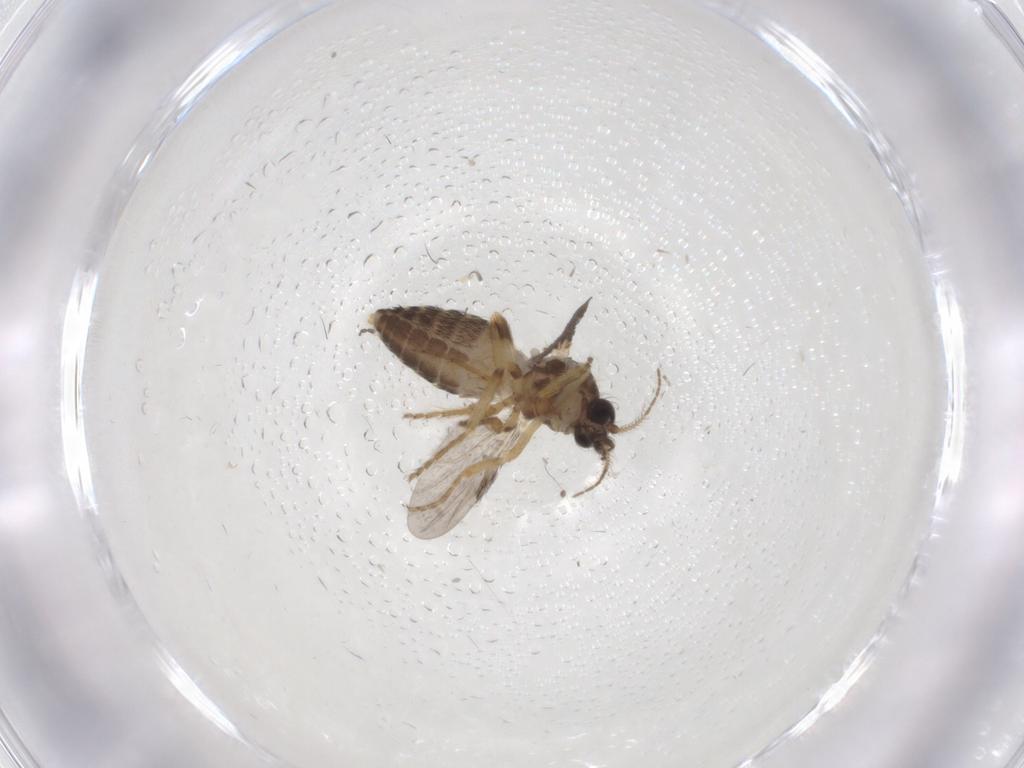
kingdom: Animalia
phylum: Arthropoda
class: Insecta
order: Diptera
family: Ceratopogonidae
